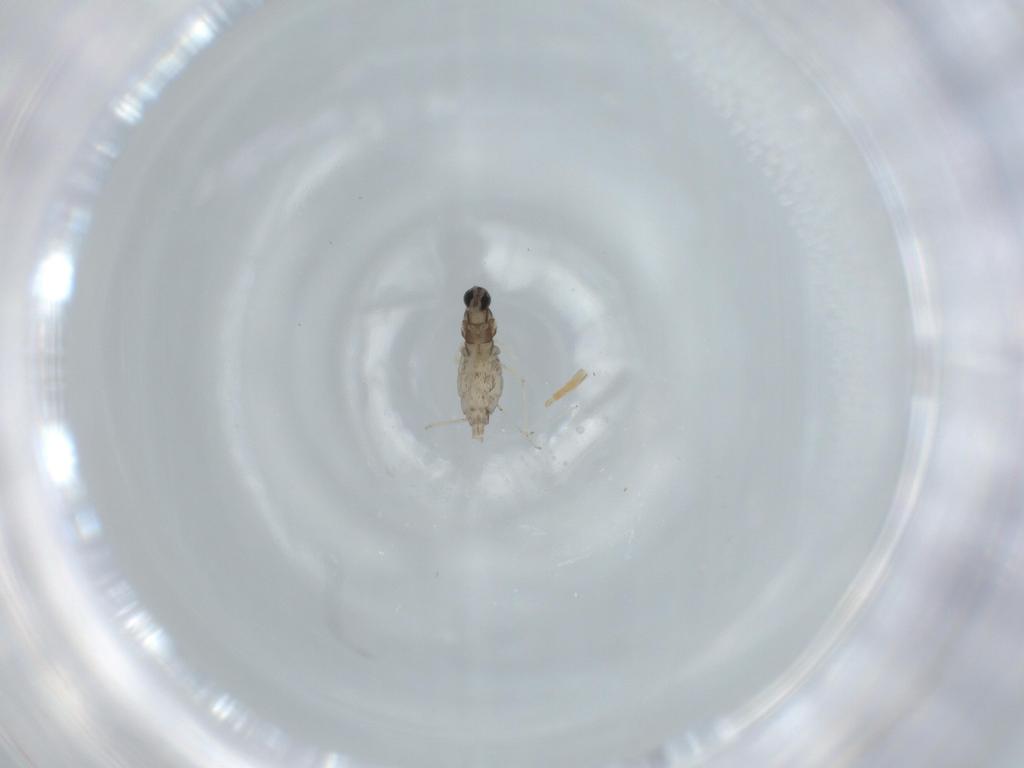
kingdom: Animalia
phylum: Arthropoda
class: Insecta
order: Diptera
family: Cecidomyiidae
